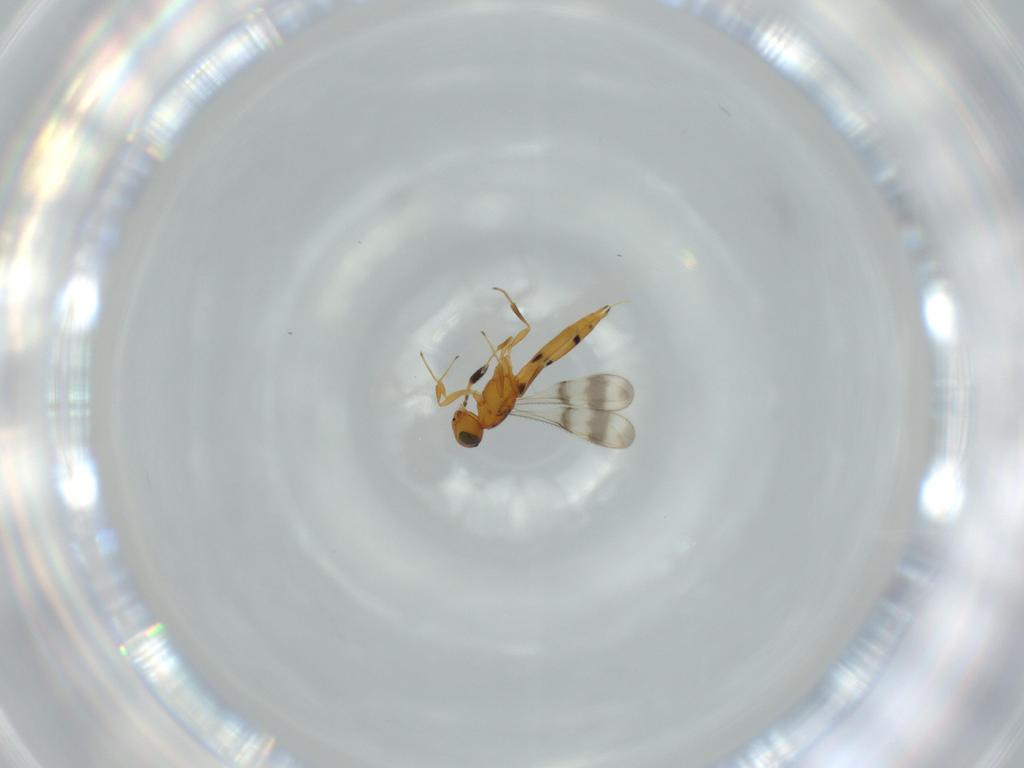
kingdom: Animalia
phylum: Arthropoda
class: Insecta
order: Hymenoptera
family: Scelionidae
